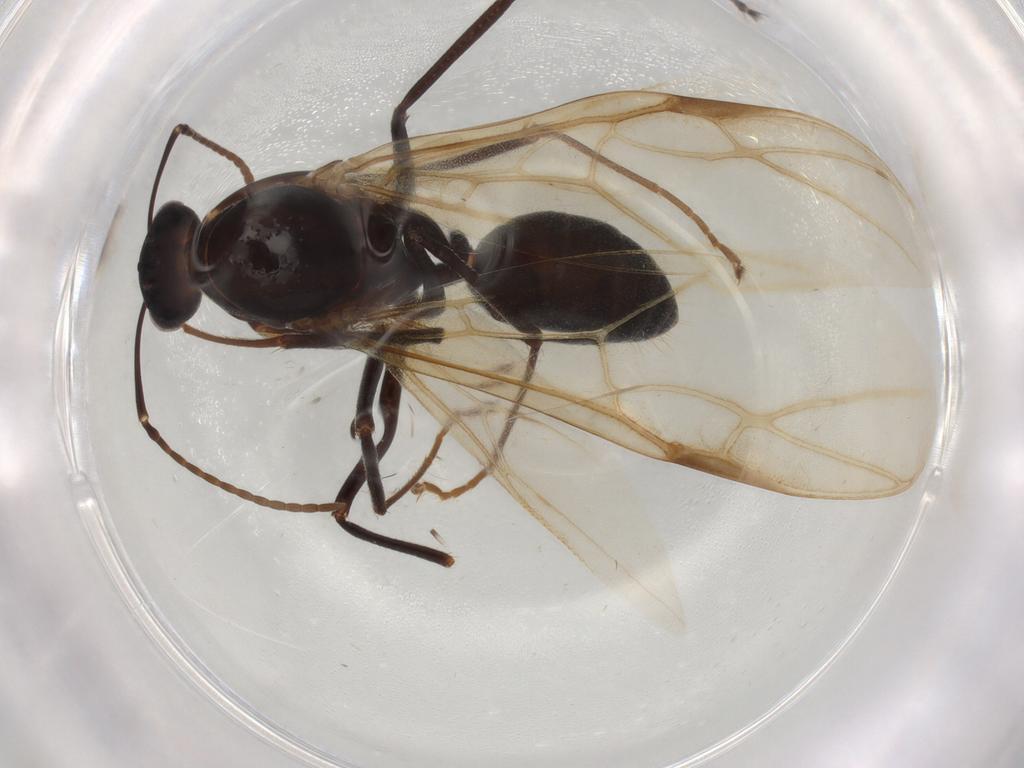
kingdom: Animalia
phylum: Arthropoda
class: Insecta
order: Hymenoptera
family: Formicidae
